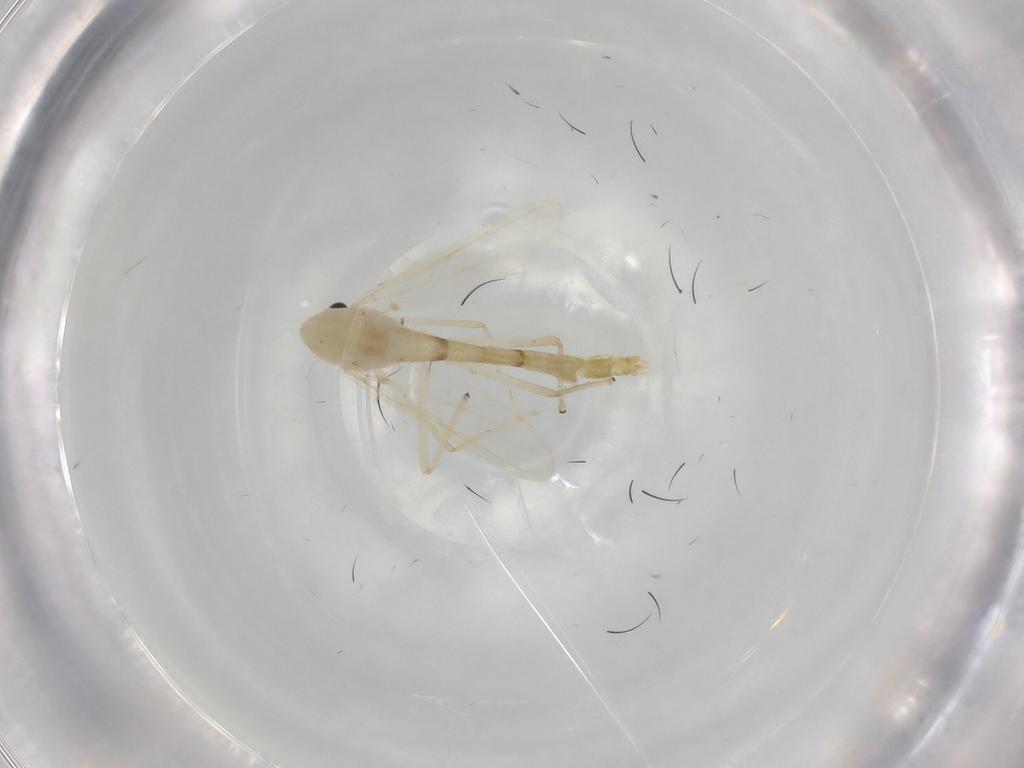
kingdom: Animalia
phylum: Arthropoda
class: Insecta
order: Diptera
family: Chironomidae
